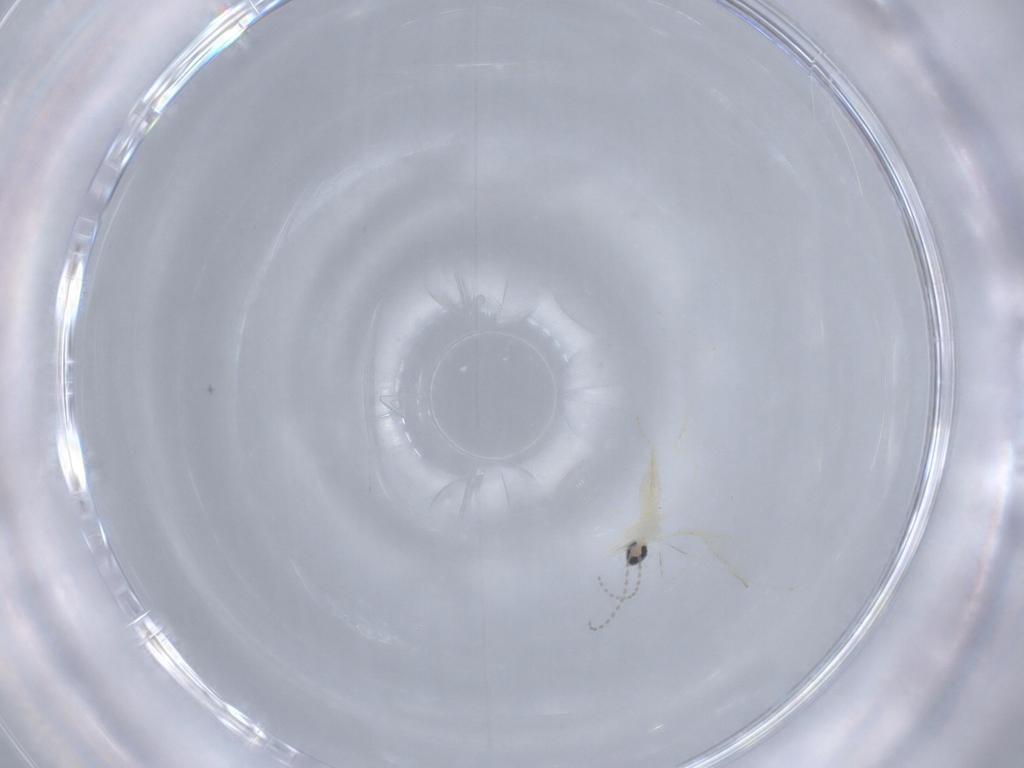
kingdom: Animalia
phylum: Arthropoda
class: Insecta
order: Diptera
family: Cecidomyiidae
